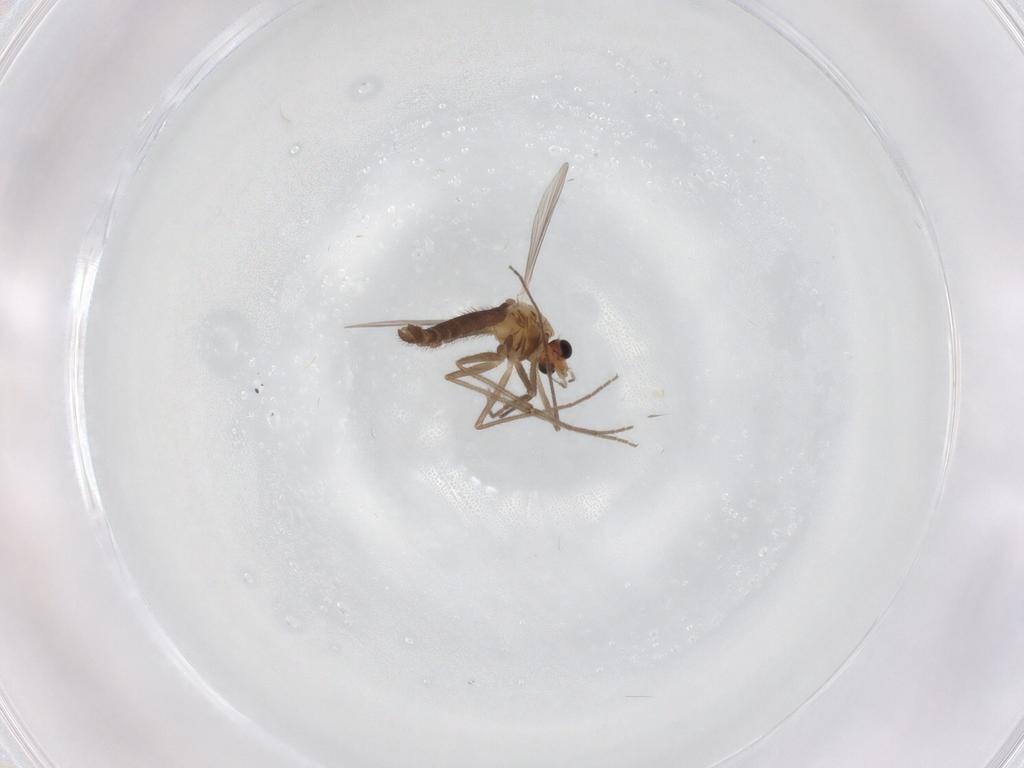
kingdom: Animalia
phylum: Arthropoda
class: Insecta
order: Diptera
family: Chironomidae
